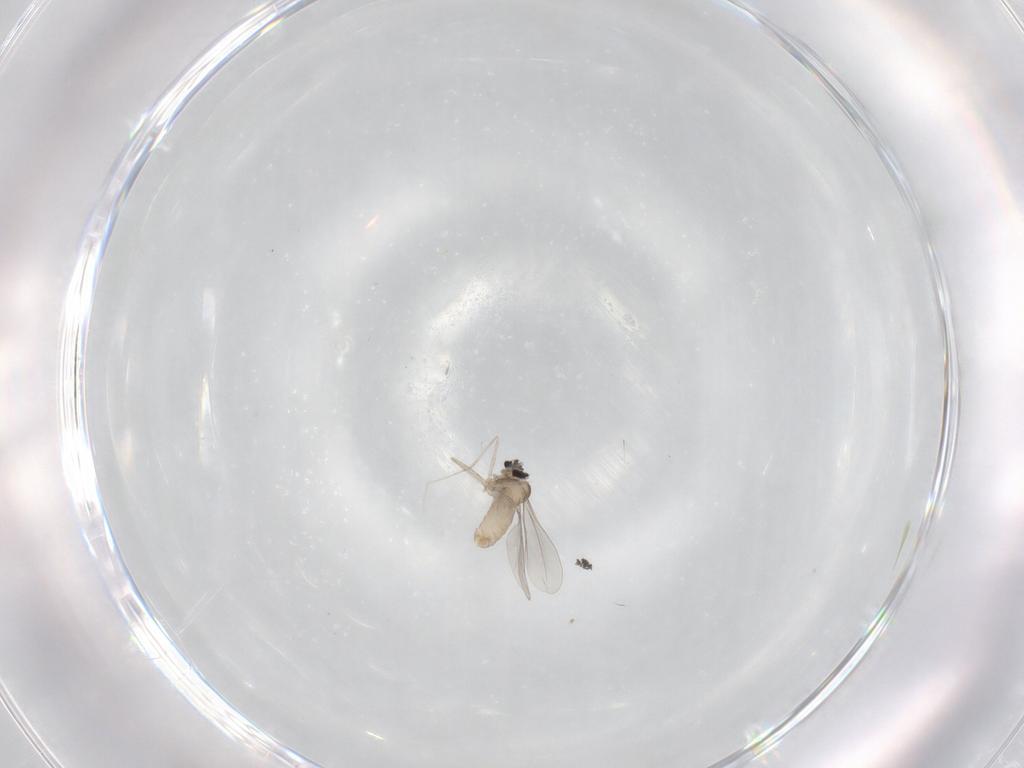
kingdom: Animalia
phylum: Arthropoda
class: Insecta
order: Diptera
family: Cecidomyiidae
